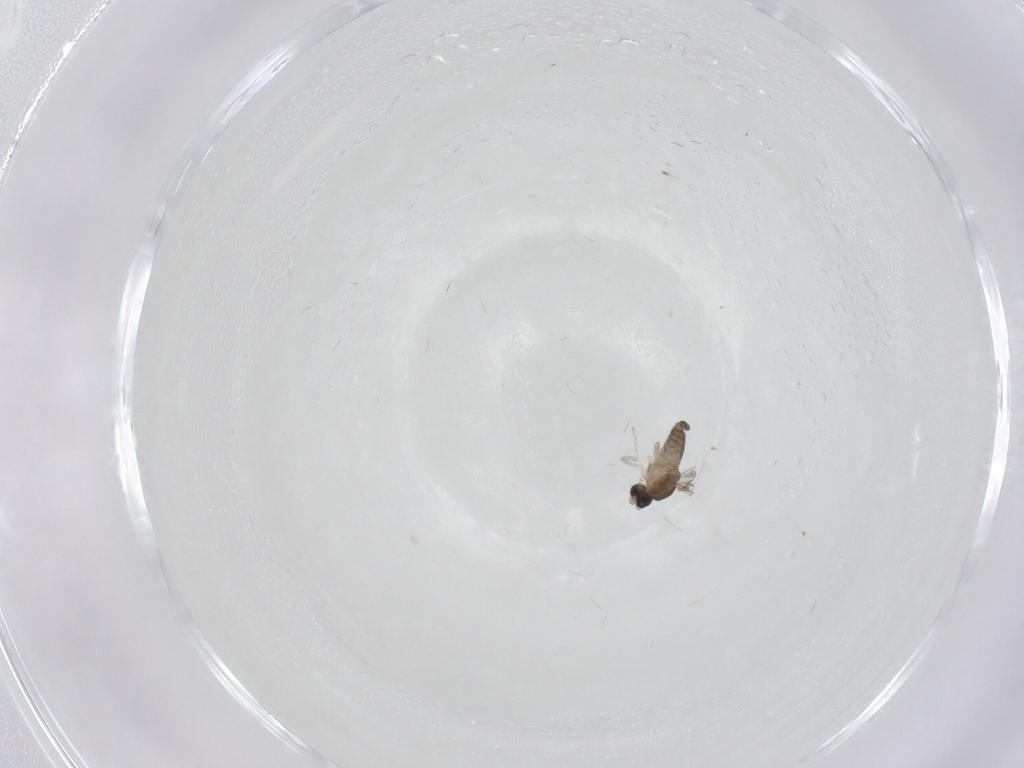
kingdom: Animalia
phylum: Arthropoda
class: Insecta
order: Diptera
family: Cecidomyiidae
